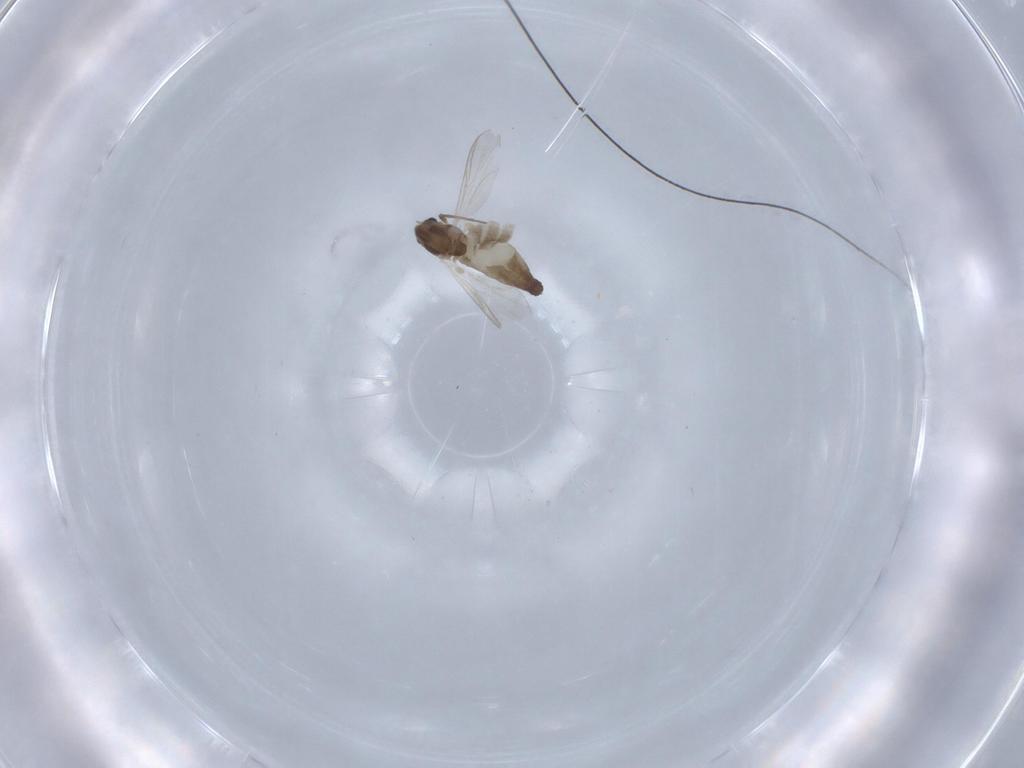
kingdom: Animalia
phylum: Arthropoda
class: Insecta
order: Diptera
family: Chironomidae
